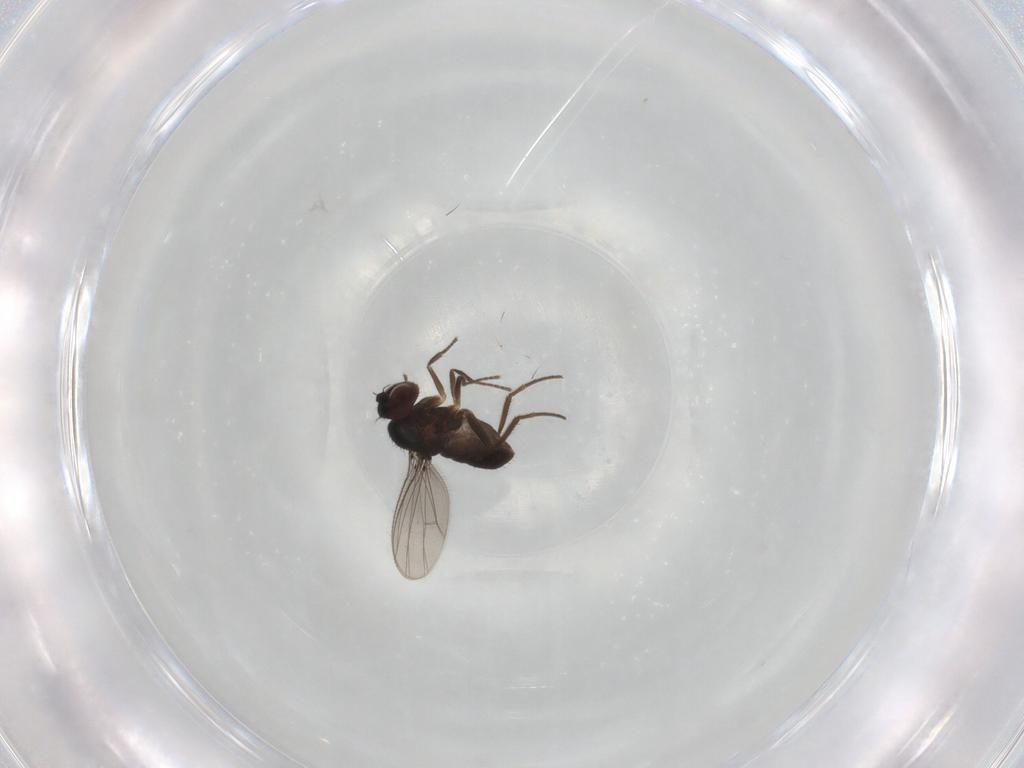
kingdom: Animalia
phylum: Arthropoda
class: Insecta
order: Diptera
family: Dolichopodidae
